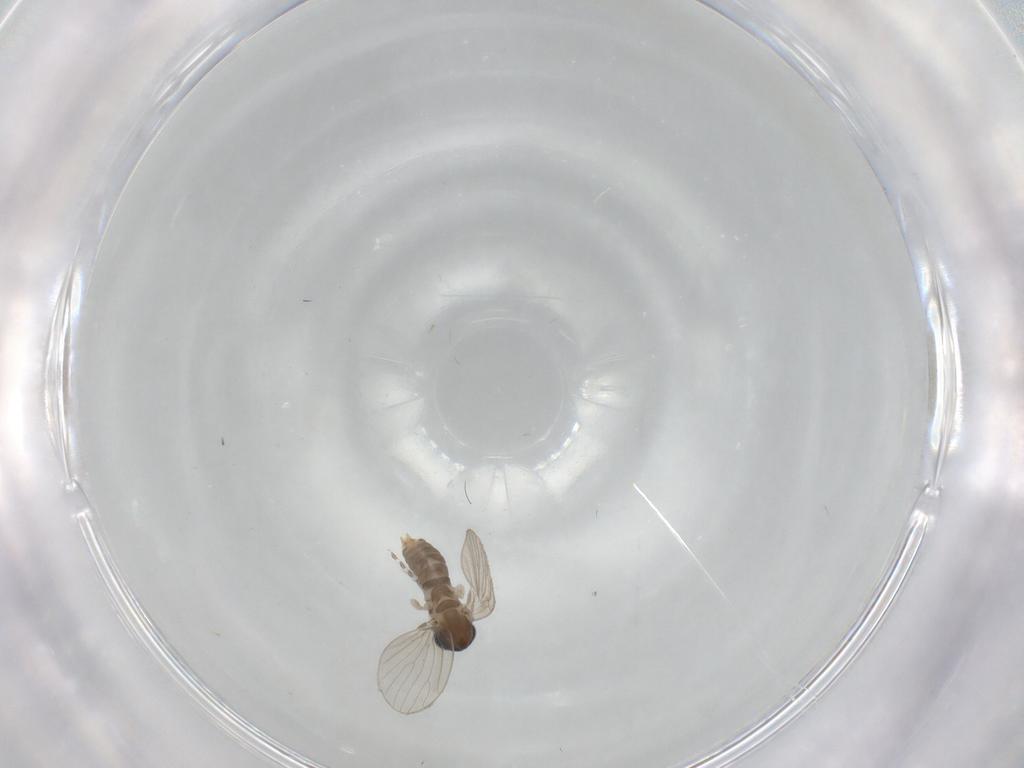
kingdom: Animalia
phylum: Arthropoda
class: Insecta
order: Diptera
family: Psychodidae
